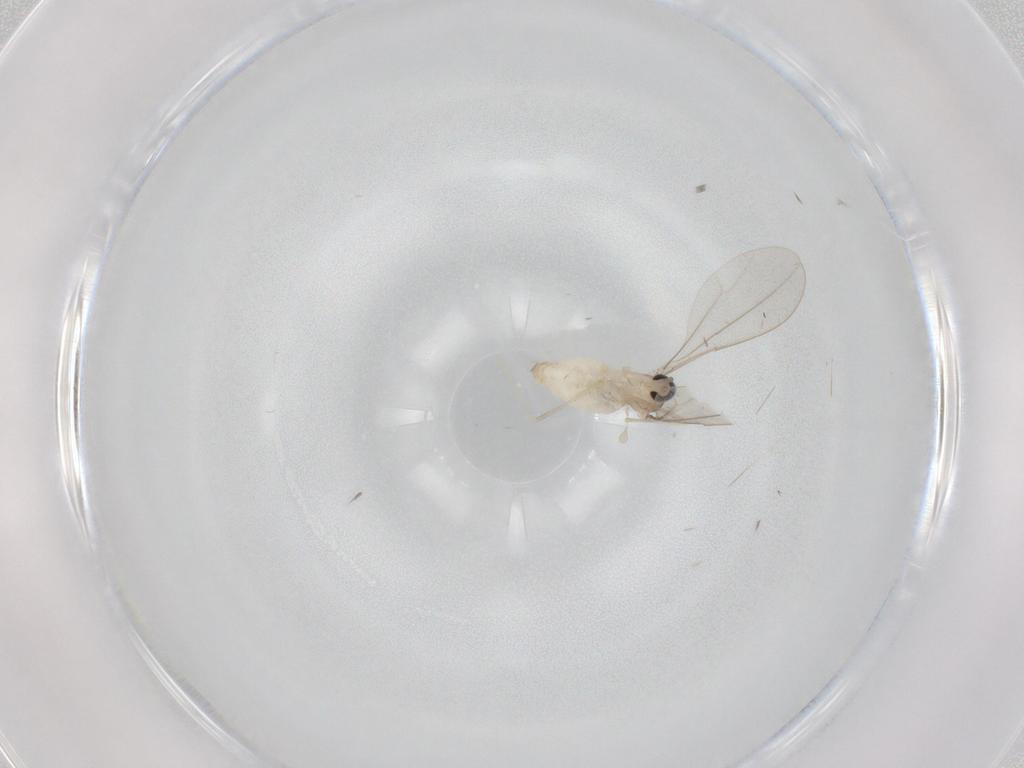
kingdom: Animalia
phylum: Arthropoda
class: Insecta
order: Diptera
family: Cecidomyiidae
